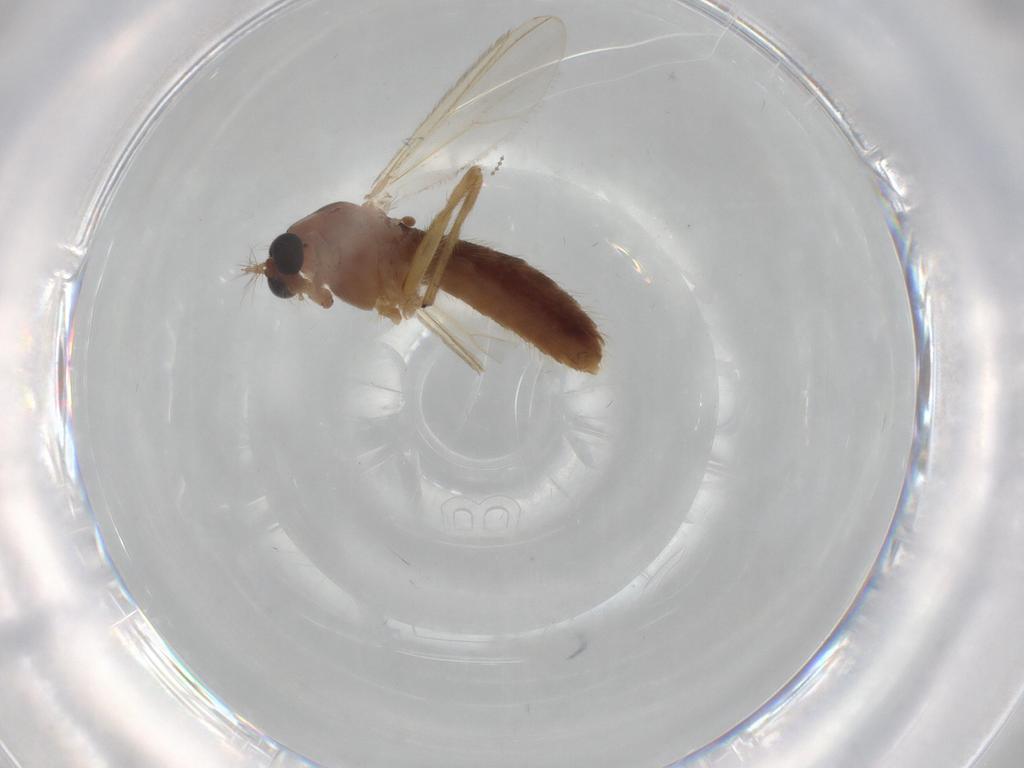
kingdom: Animalia
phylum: Arthropoda
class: Insecta
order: Diptera
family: Chironomidae
